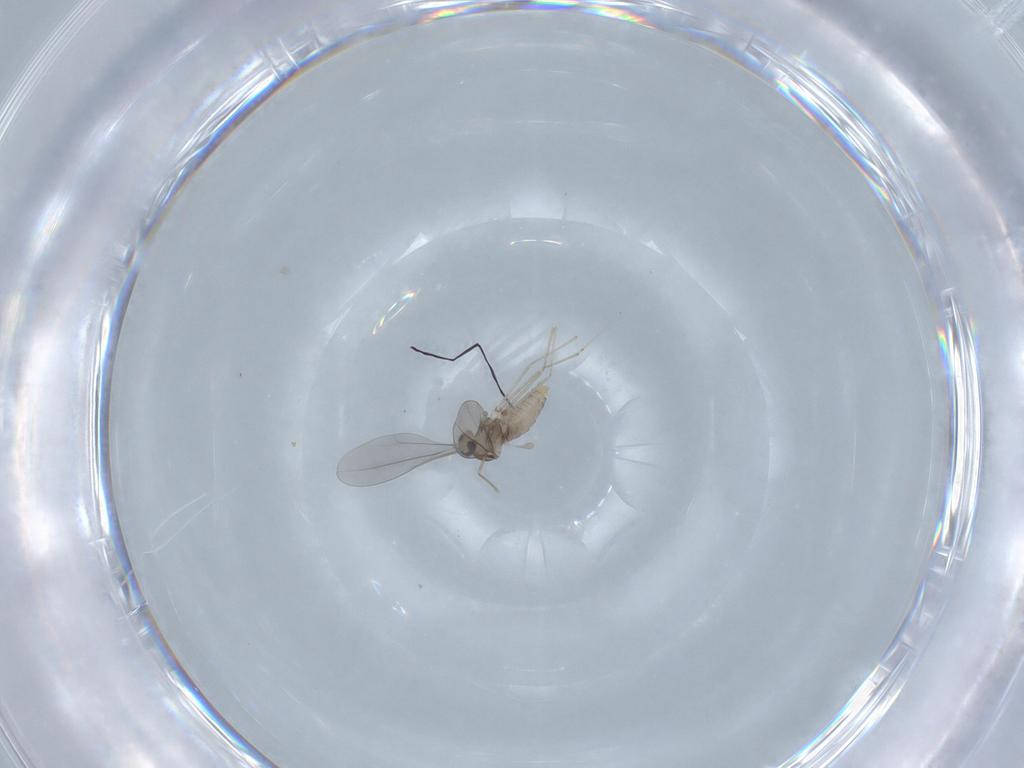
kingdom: Animalia
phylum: Arthropoda
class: Insecta
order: Diptera
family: Cecidomyiidae
